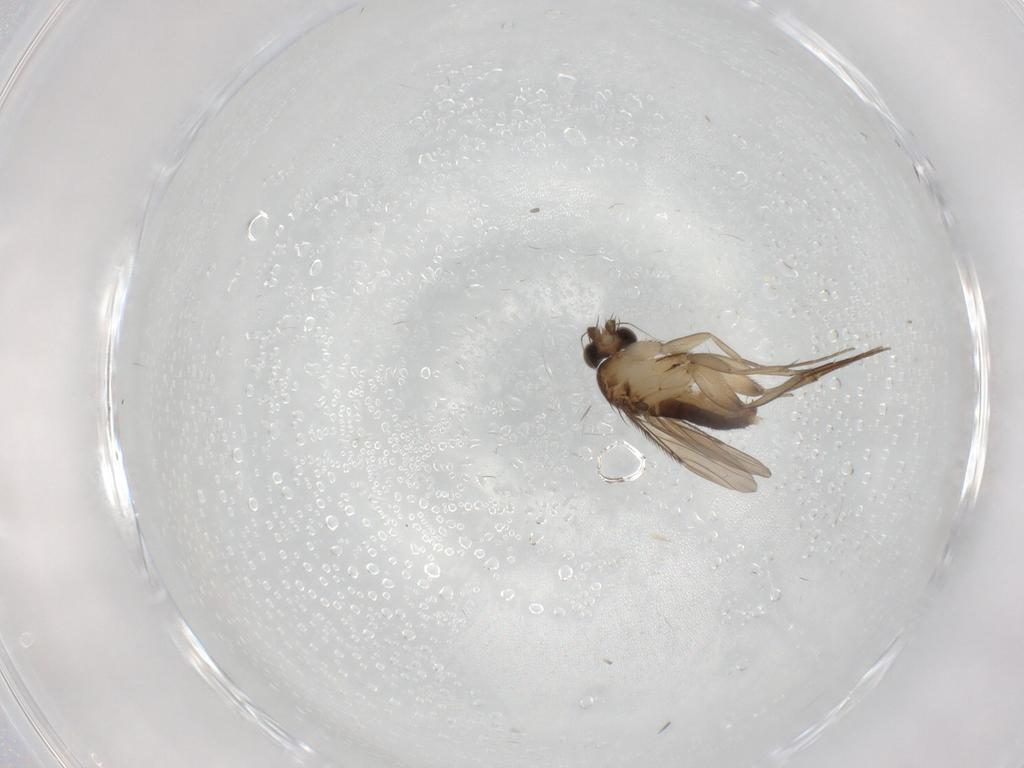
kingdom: Animalia
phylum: Arthropoda
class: Insecta
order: Diptera
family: Phoridae
